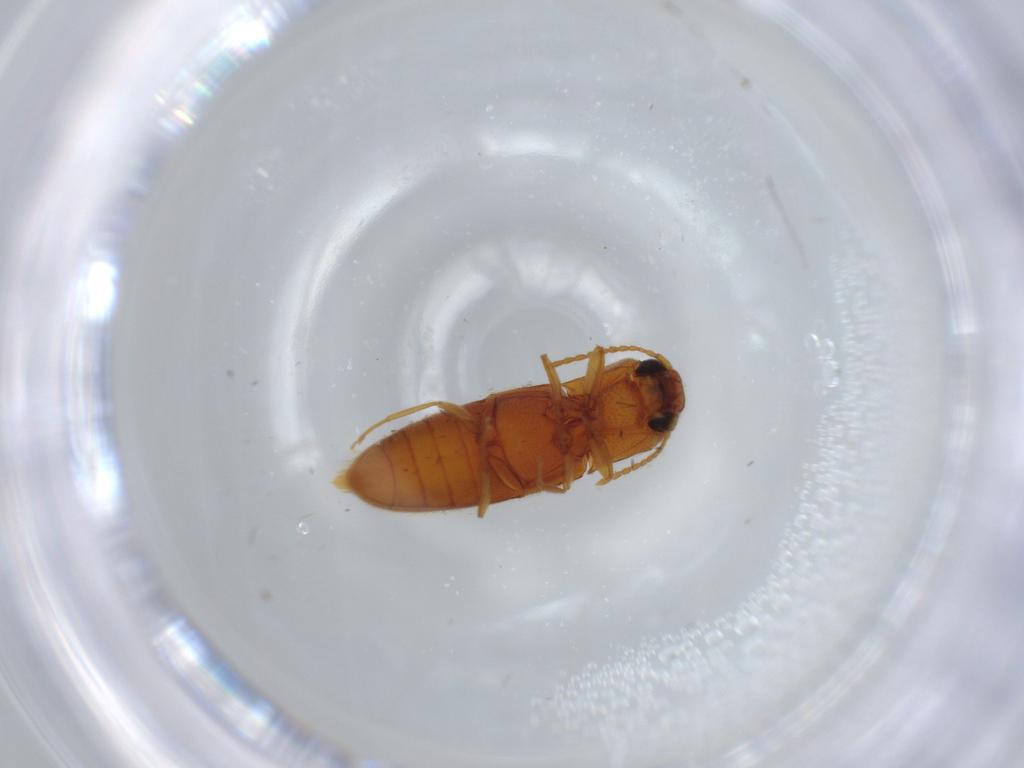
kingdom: Animalia
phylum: Arthropoda
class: Insecta
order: Coleoptera
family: Elateridae
